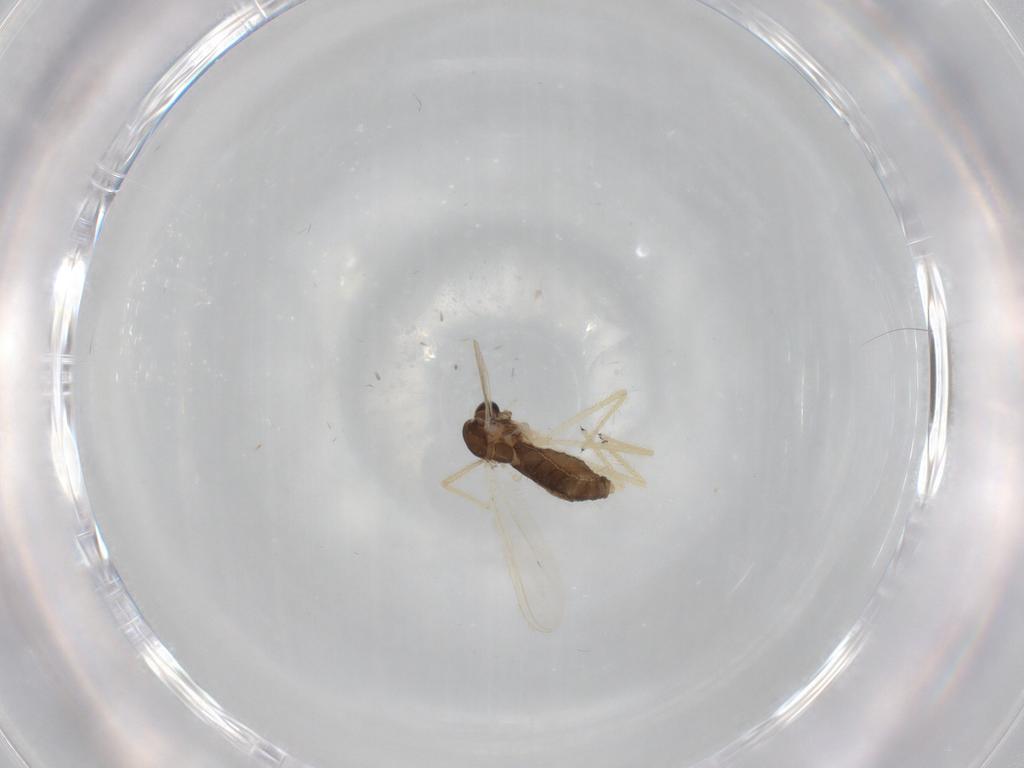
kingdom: Animalia
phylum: Arthropoda
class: Insecta
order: Diptera
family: Chironomidae
